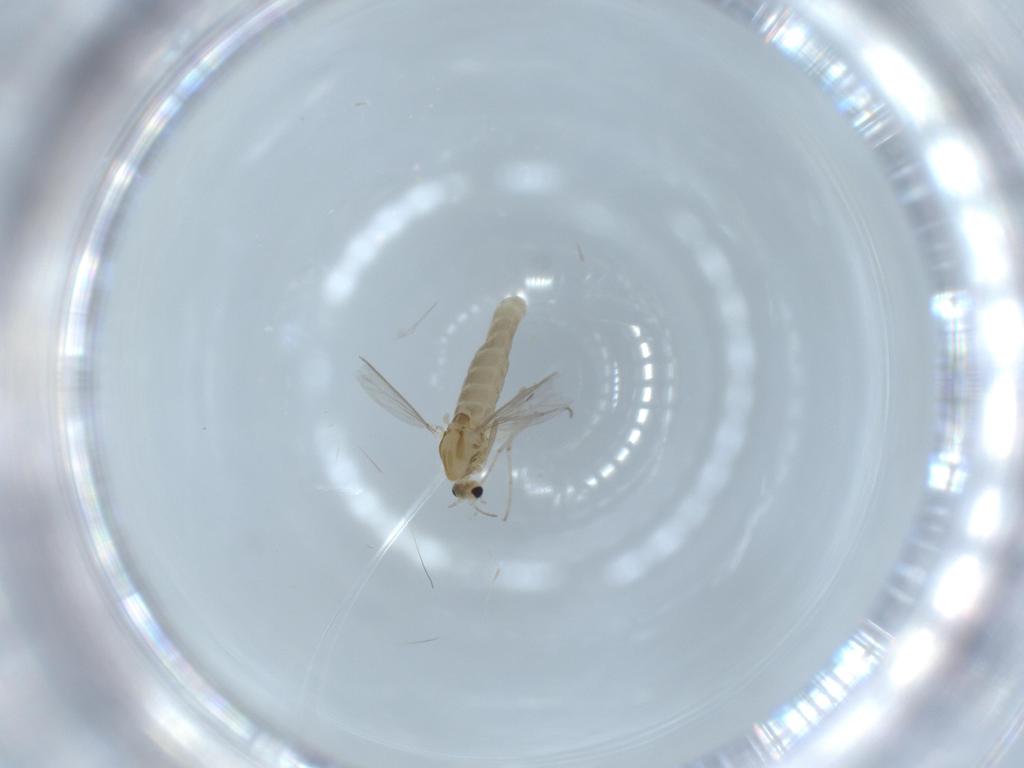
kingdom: Animalia
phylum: Arthropoda
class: Insecta
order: Diptera
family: Chironomidae
